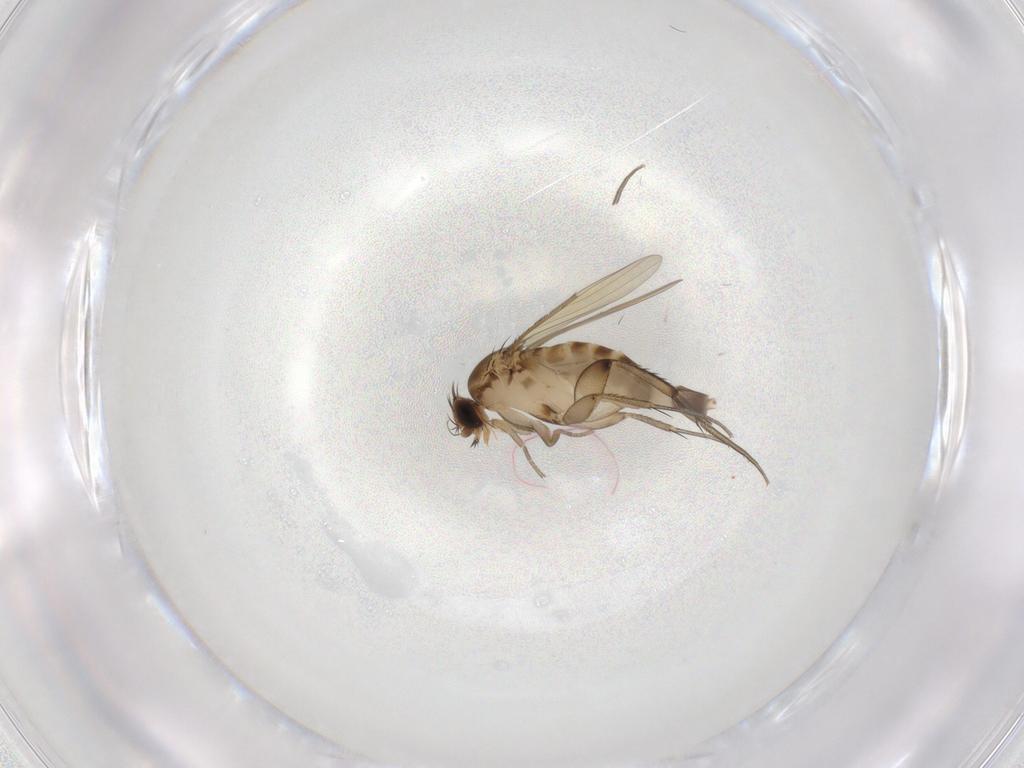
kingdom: Animalia
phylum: Arthropoda
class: Insecta
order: Diptera
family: Phoridae
